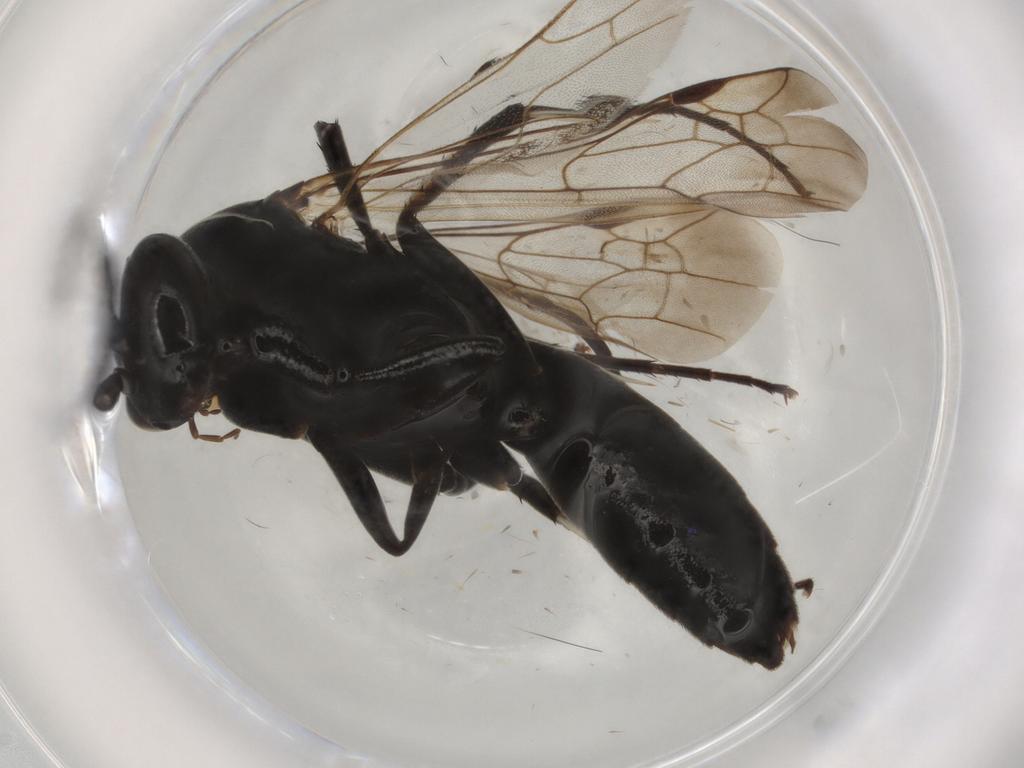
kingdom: Animalia
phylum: Arthropoda
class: Insecta
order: Hymenoptera
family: Pompilidae
